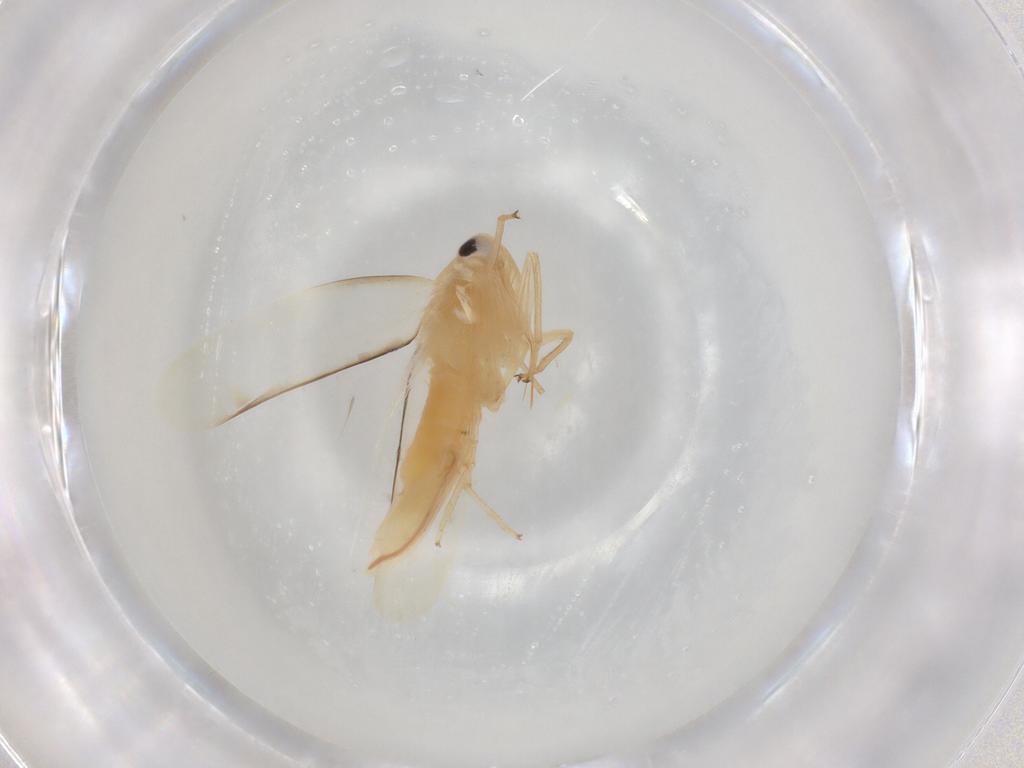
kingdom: Animalia
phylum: Arthropoda
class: Insecta
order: Hemiptera
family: Cicadellidae
